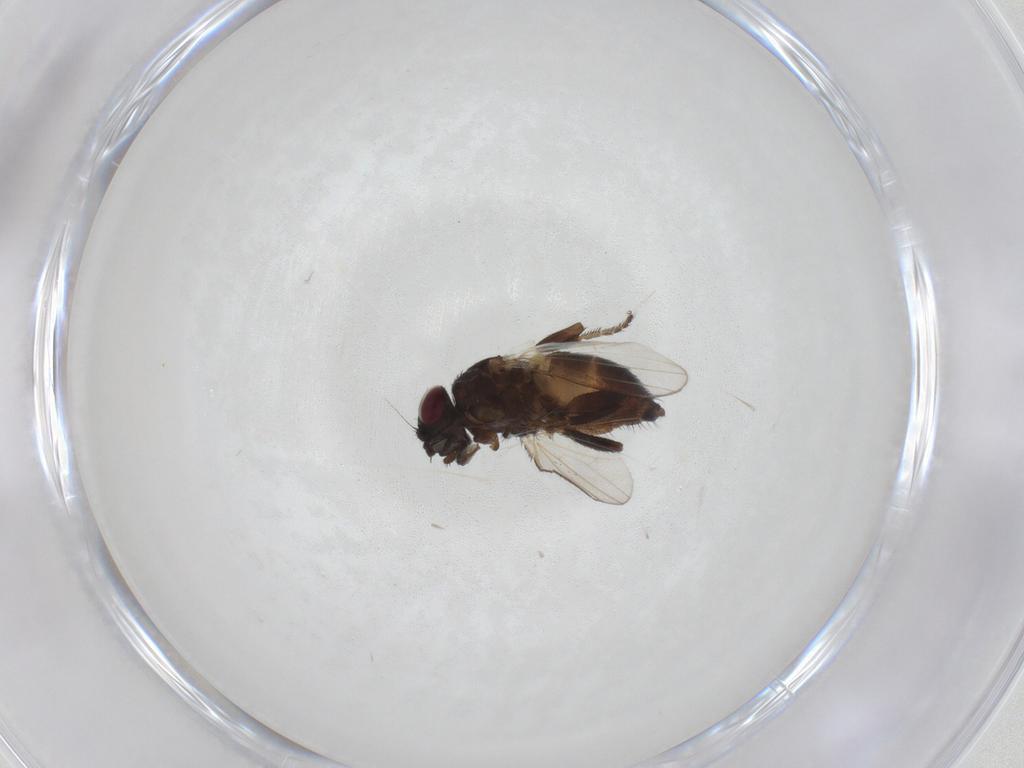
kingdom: Animalia
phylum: Arthropoda
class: Insecta
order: Diptera
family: Milichiidae
